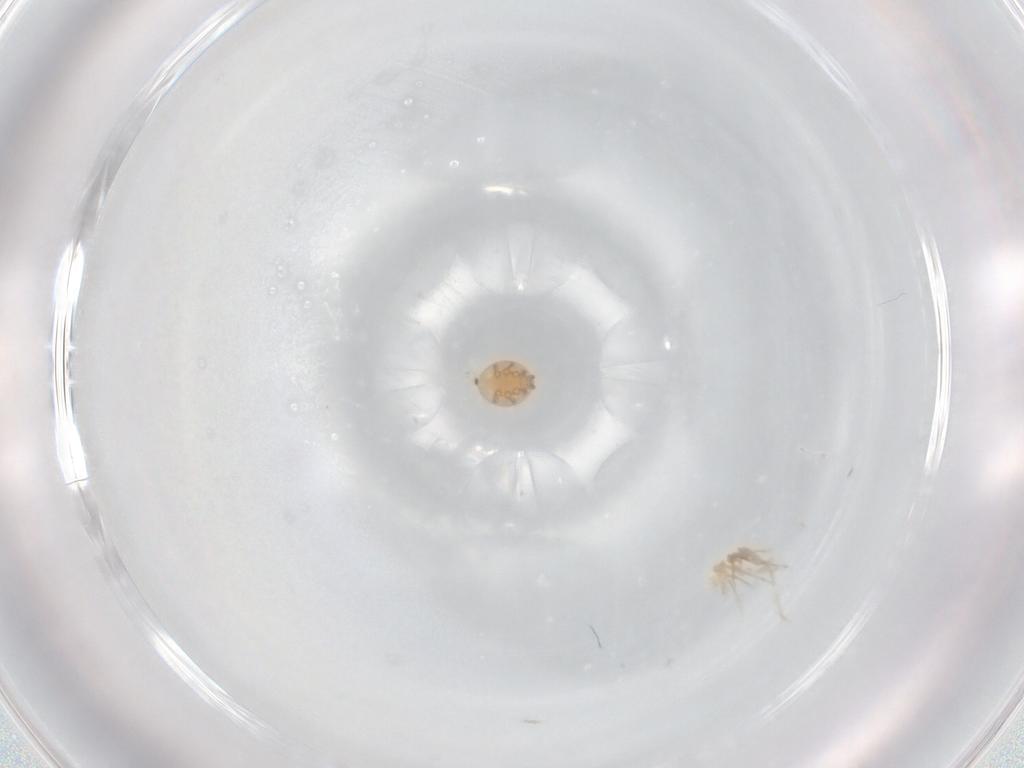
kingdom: Animalia
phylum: Arthropoda
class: Arachnida
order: Mesostigmata
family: Trematuridae
